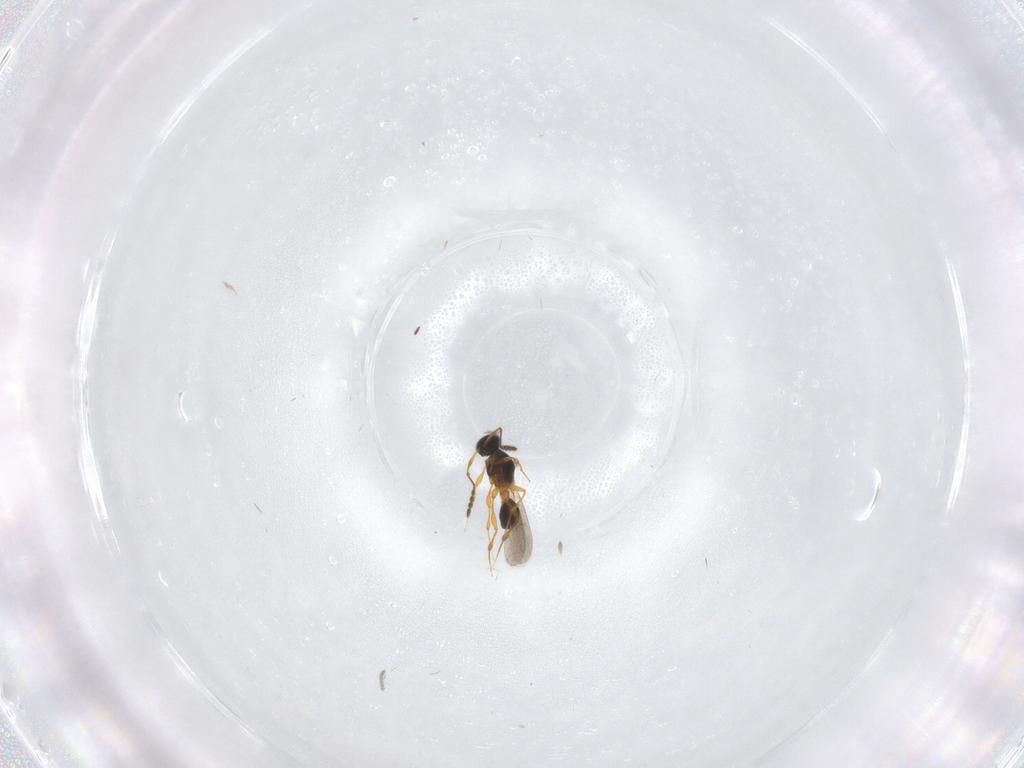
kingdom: Animalia
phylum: Arthropoda
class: Insecta
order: Hymenoptera
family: Platygastridae
